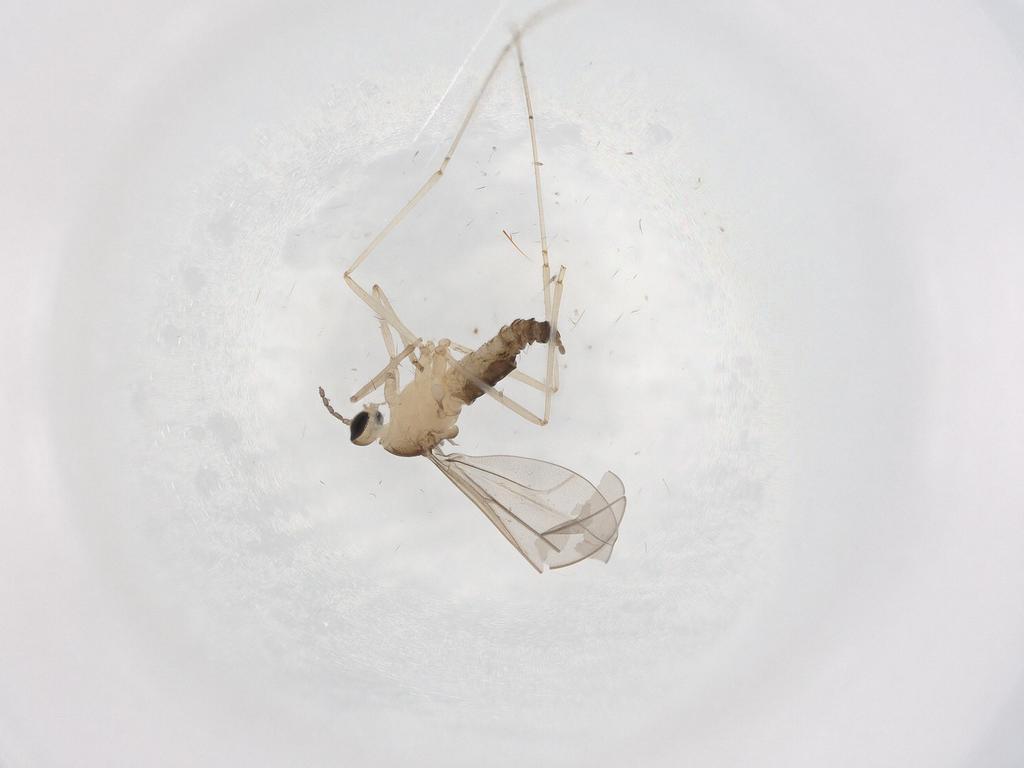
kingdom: Animalia
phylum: Arthropoda
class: Insecta
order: Diptera
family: Cecidomyiidae
